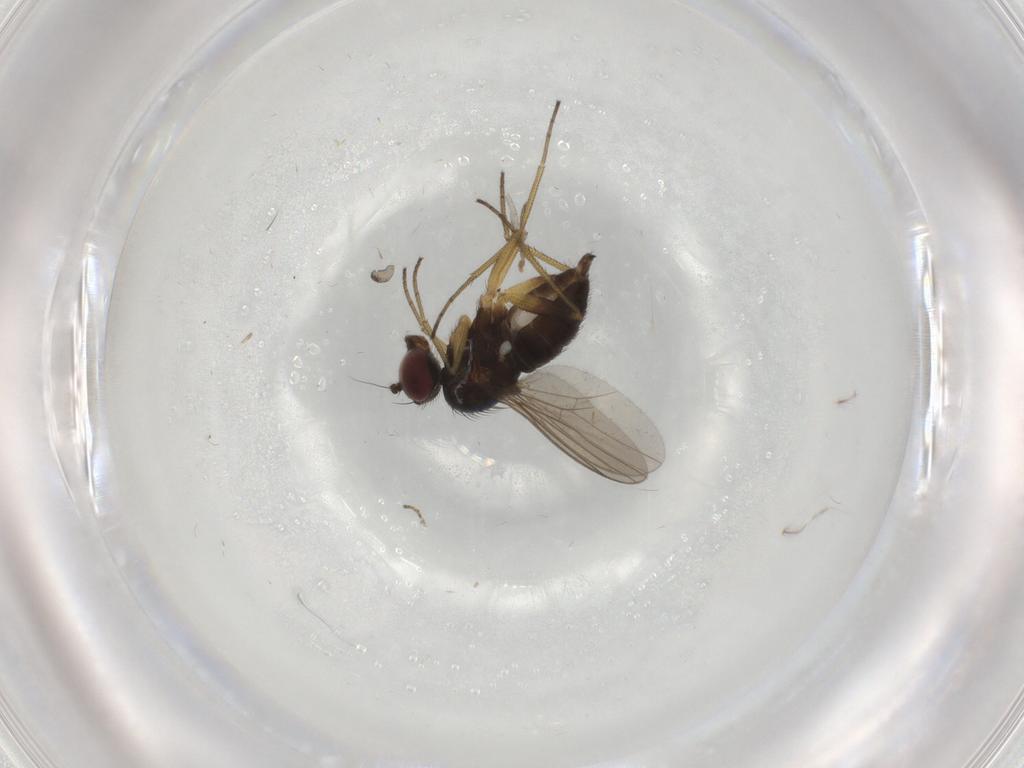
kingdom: Animalia
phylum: Arthropoda
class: Insecta
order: Diptera
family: Dolichopodidae
